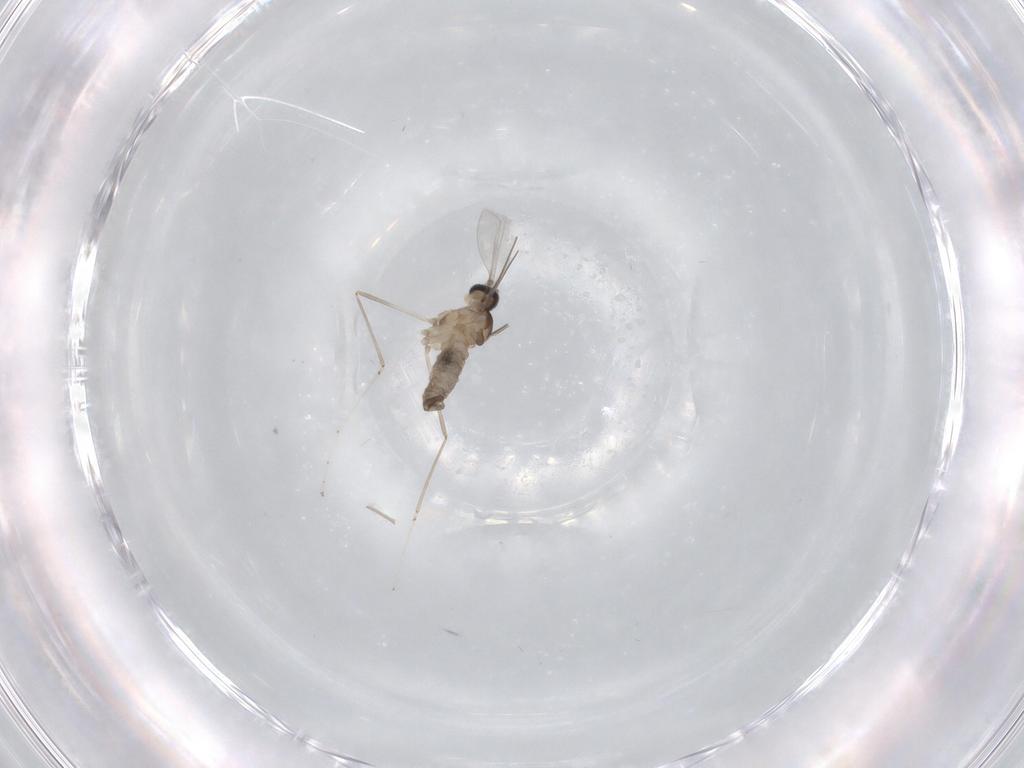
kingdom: Animalia
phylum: Arthropoda
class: Insecta
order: Diptera
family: Cecidomyiidae
